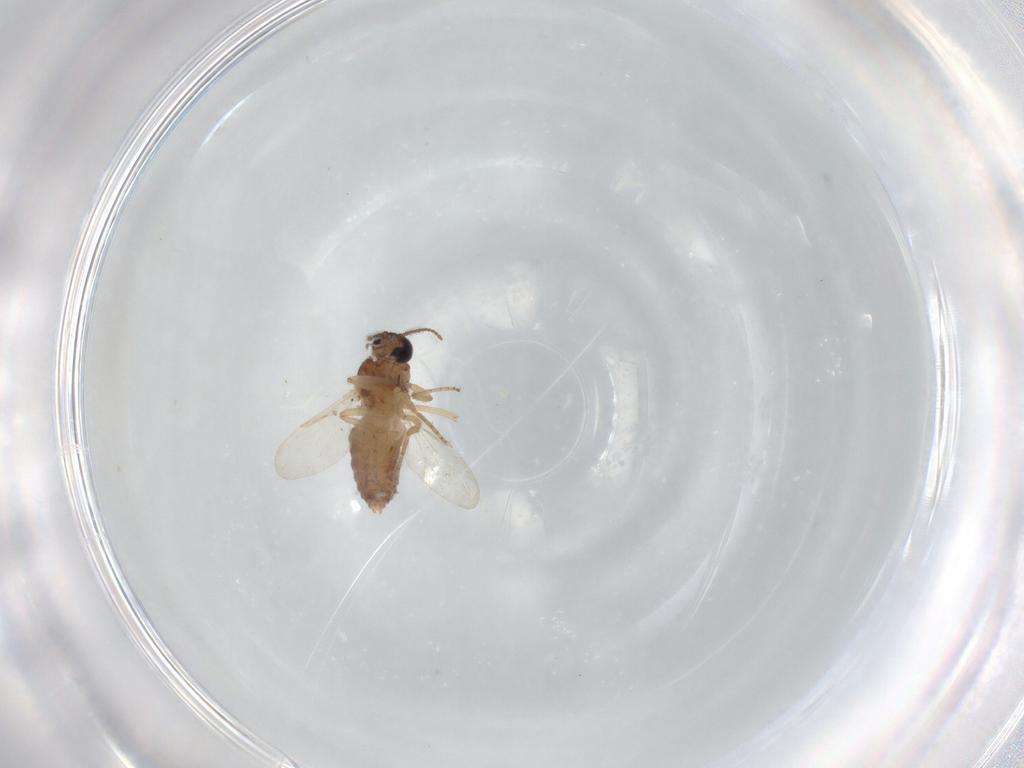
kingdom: Animalia
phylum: Arthropoda
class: Insecta
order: Diptera
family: Ceratopogonidae
